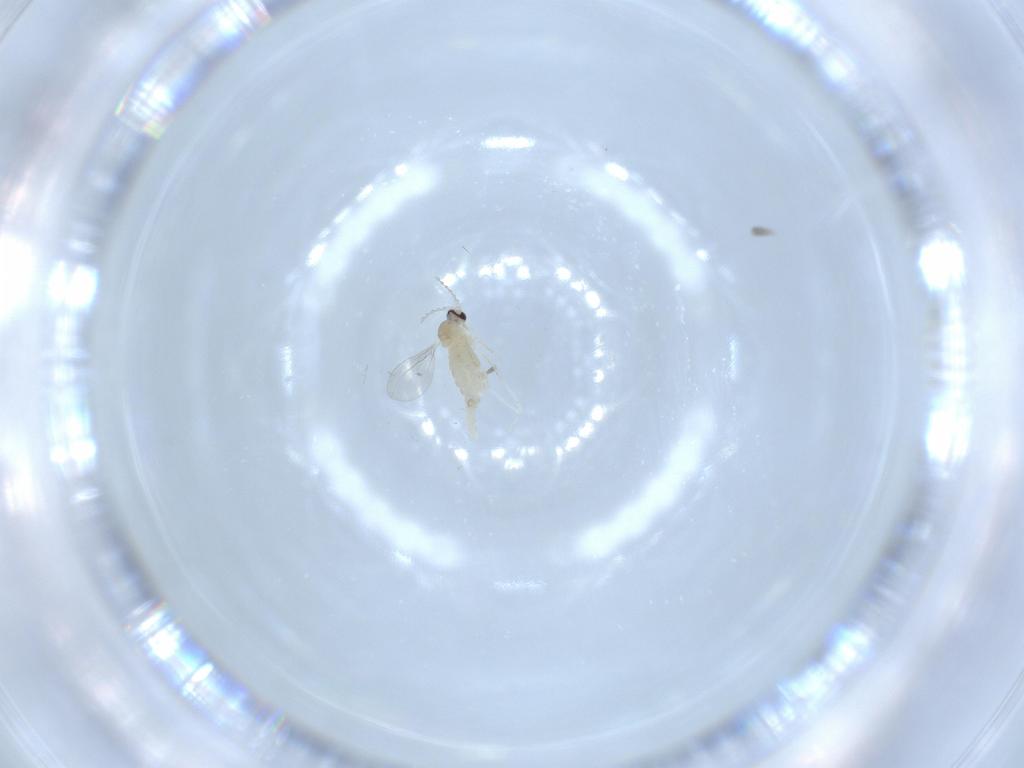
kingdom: Animalia
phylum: Arthropoda
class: Insecta
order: Diptera
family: Cecidomyiidae
